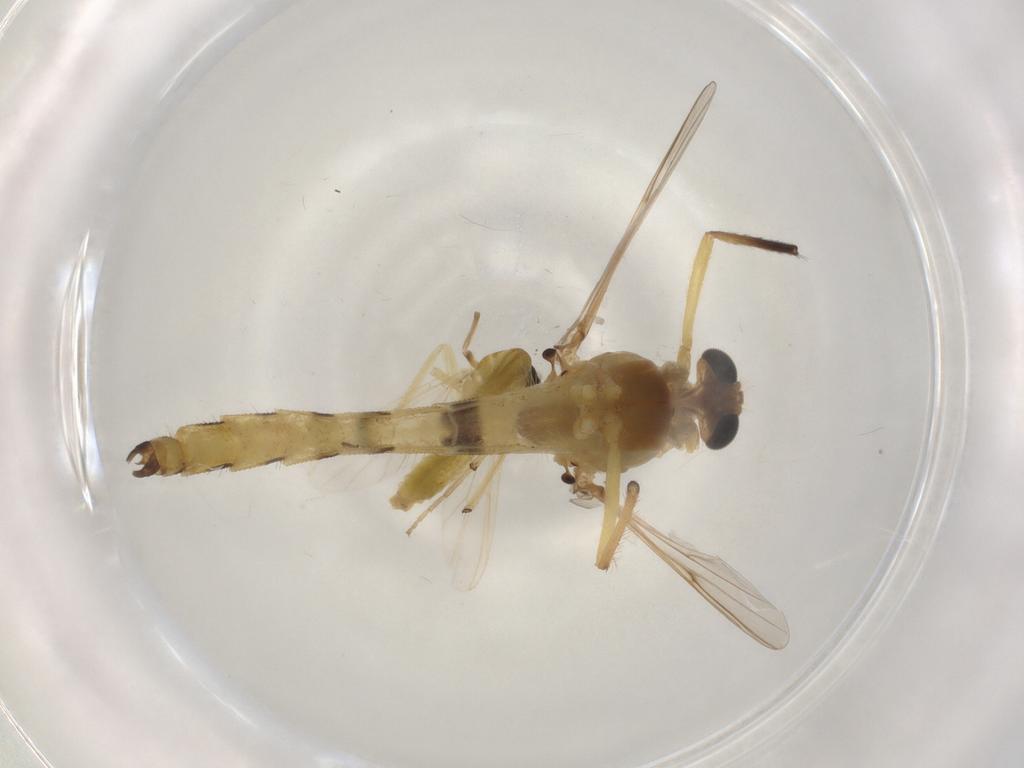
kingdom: Animalia
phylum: Arthropoda
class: Insecta
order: Diptera
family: Chironomidae
